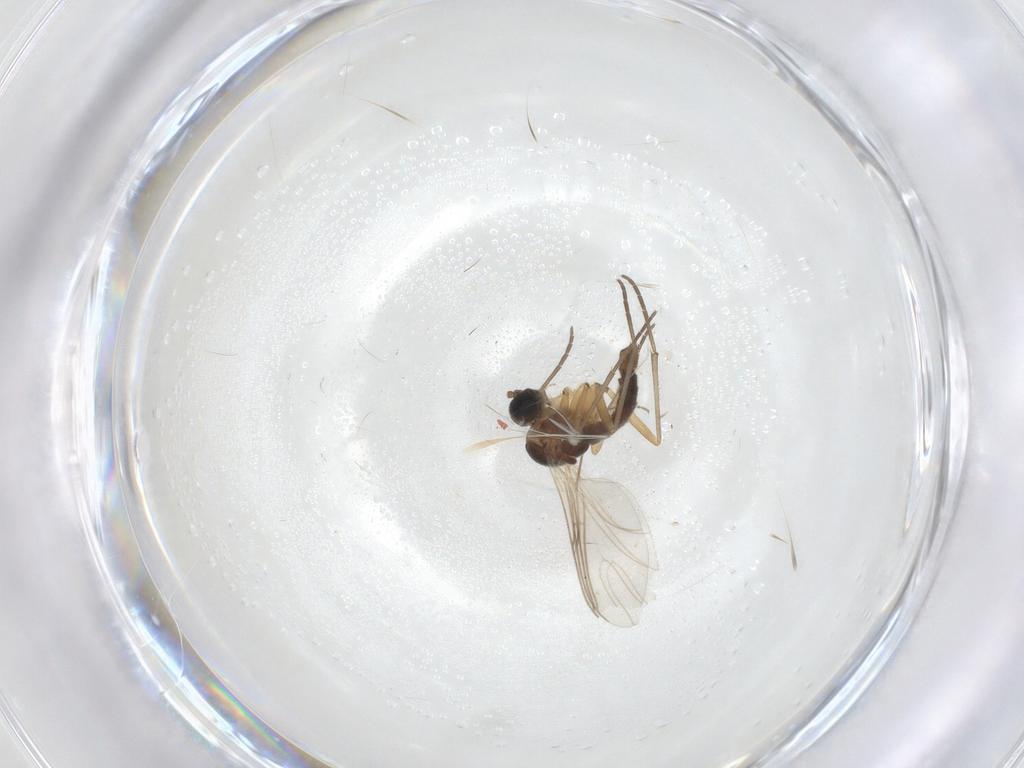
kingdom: Animalia
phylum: Arthropoda
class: Insecta
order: Diptera
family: Sciaridae
